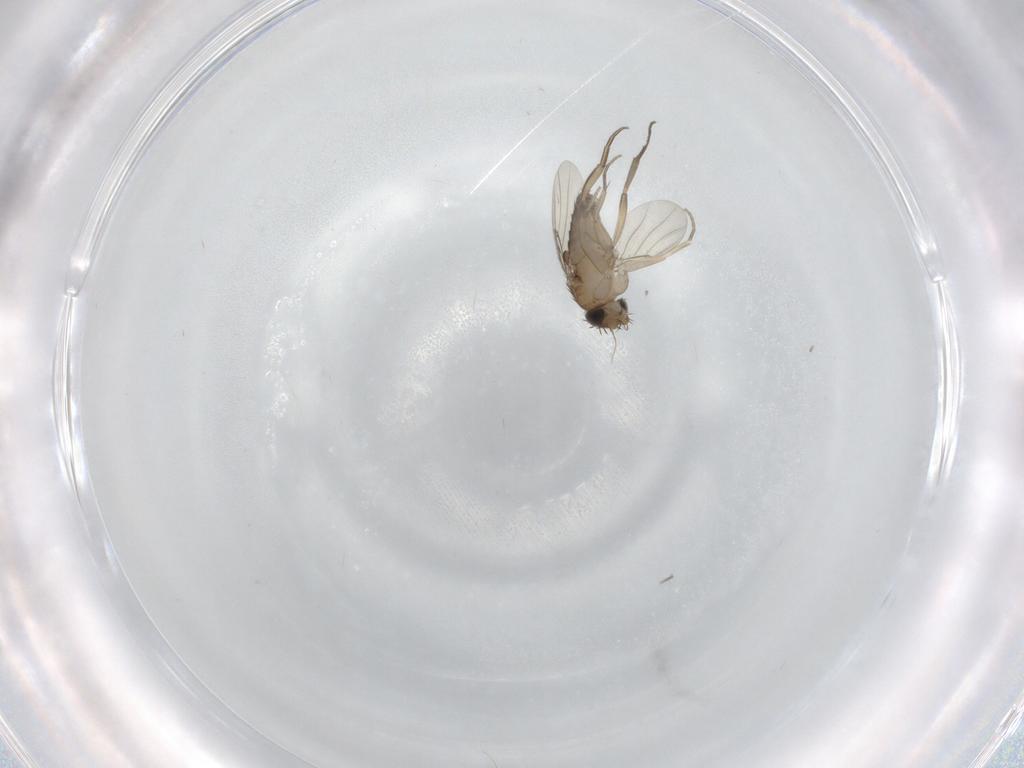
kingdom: Animalia
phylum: Arthropoda
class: Insecta
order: Diptera
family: Phoridae
